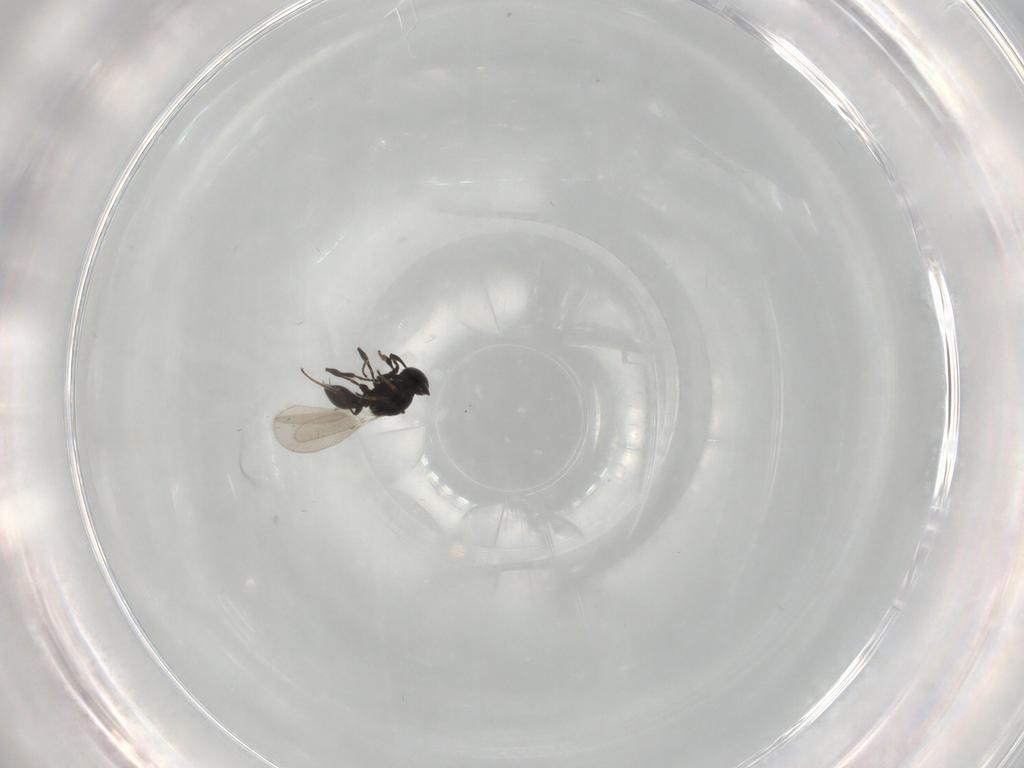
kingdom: Animalia
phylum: Arthropoda
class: Insecta
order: Hymenoptera
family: Platygastridae
